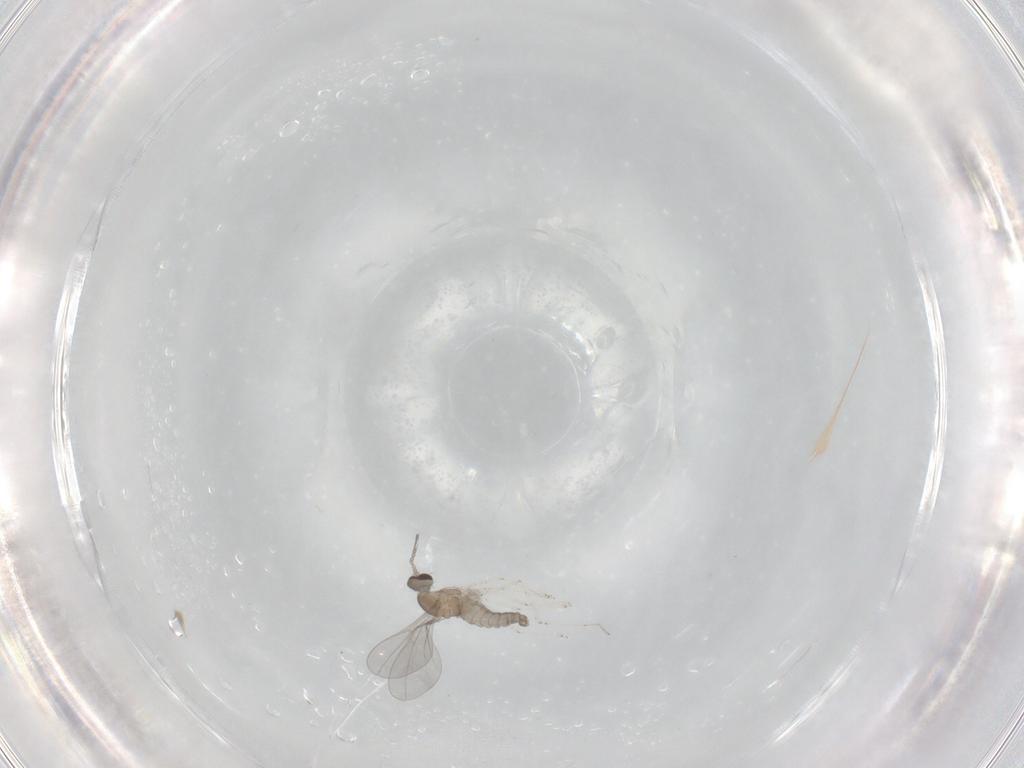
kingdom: Animalia
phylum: Arthropoda
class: Insecta
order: Diptera
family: Cecidomyiidae
